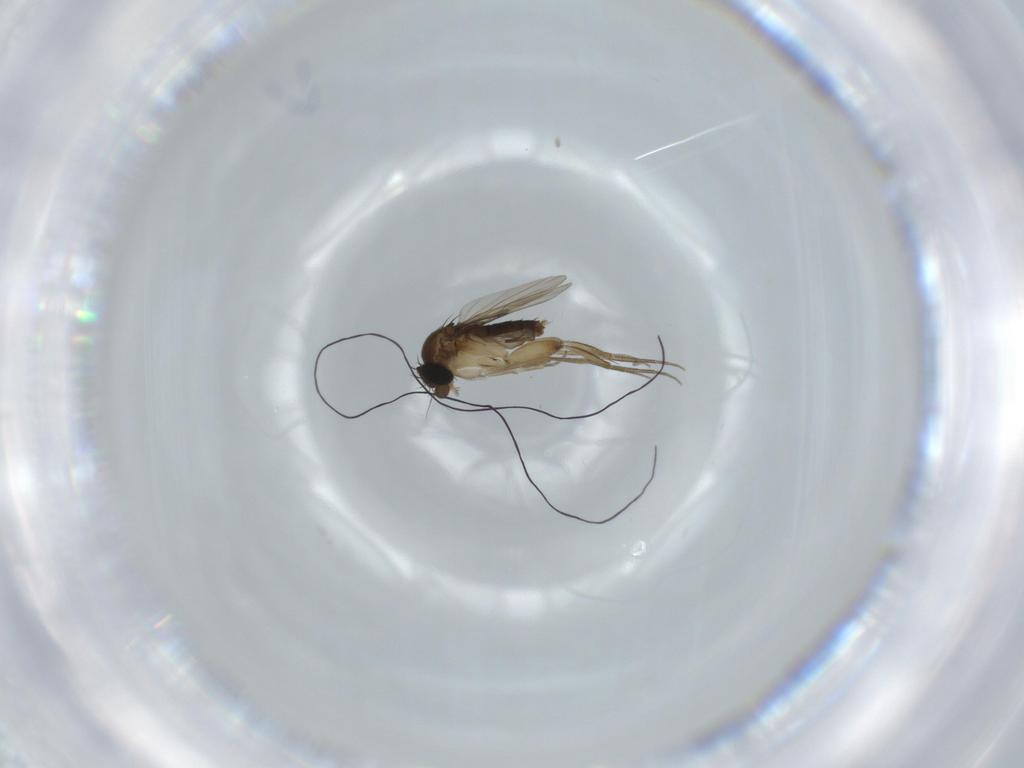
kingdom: Animalia
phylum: Arthropoda
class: Insecta
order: Diptera
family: Phoridae
